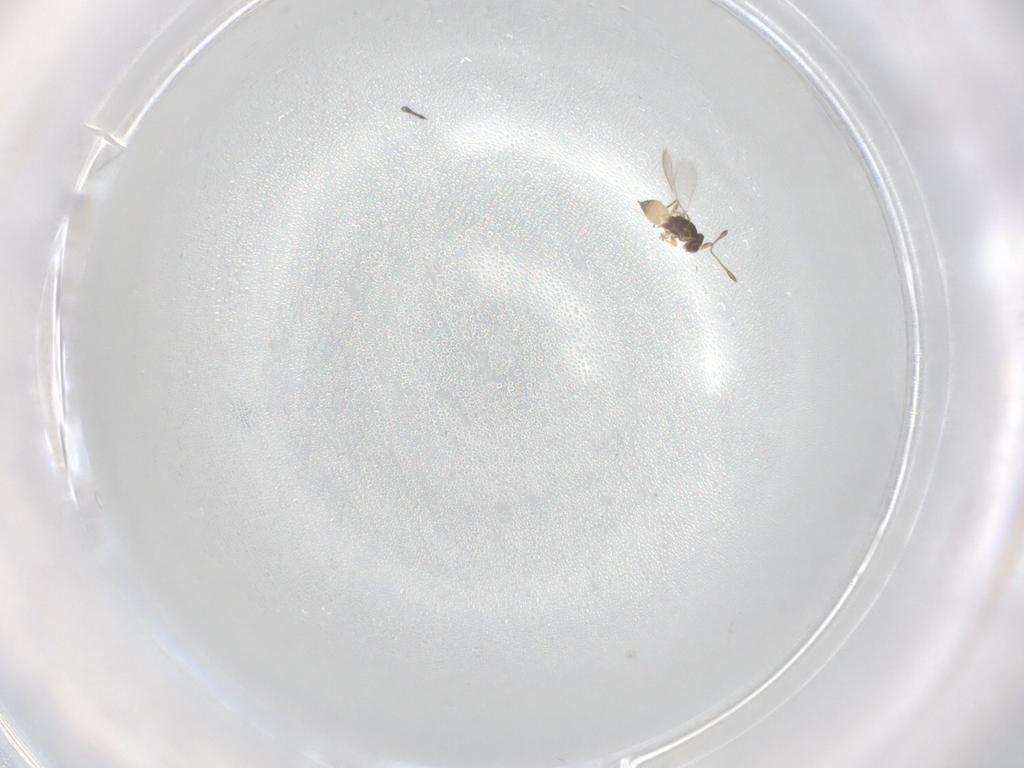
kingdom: Animalia
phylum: Arthropoda
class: Insecta
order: Hymenoptera
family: Mymaridae
